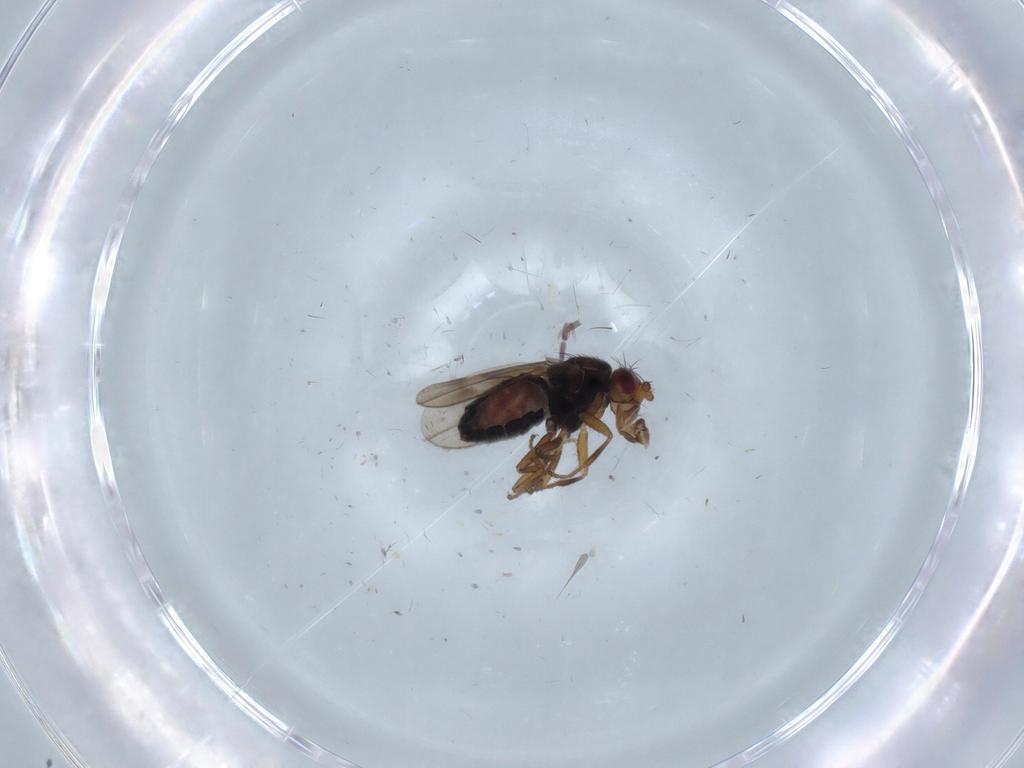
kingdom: Animalia
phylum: Arthropoda
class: Insecta
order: Diptera
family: Sphaeroceridae
